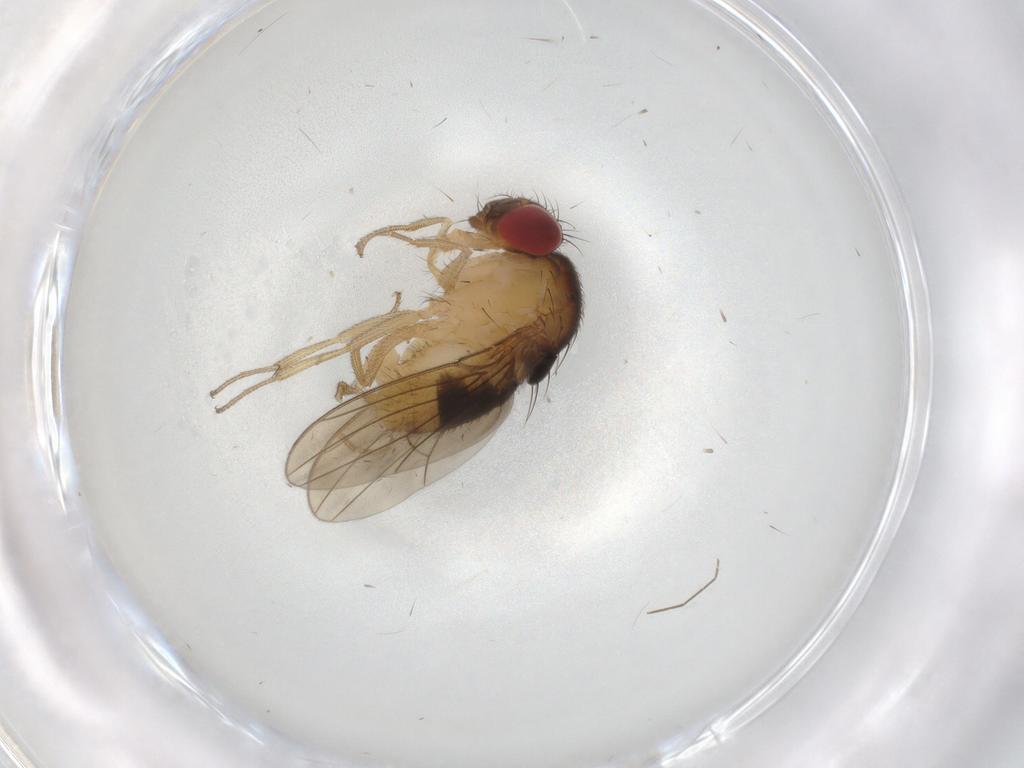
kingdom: Animalia
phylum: Arthropoda
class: Insecta
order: Diptera
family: Drosophilidae
